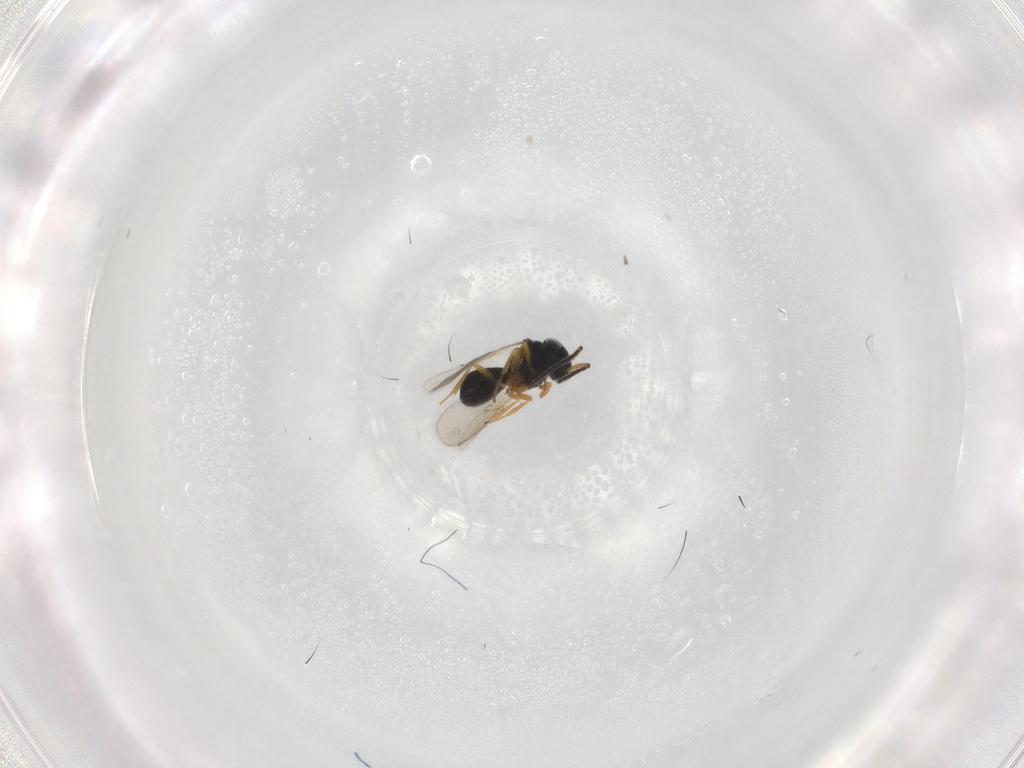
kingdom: Animalia
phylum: Arthropoda
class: Insecta
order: Hymenoptera
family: Scelionidae
